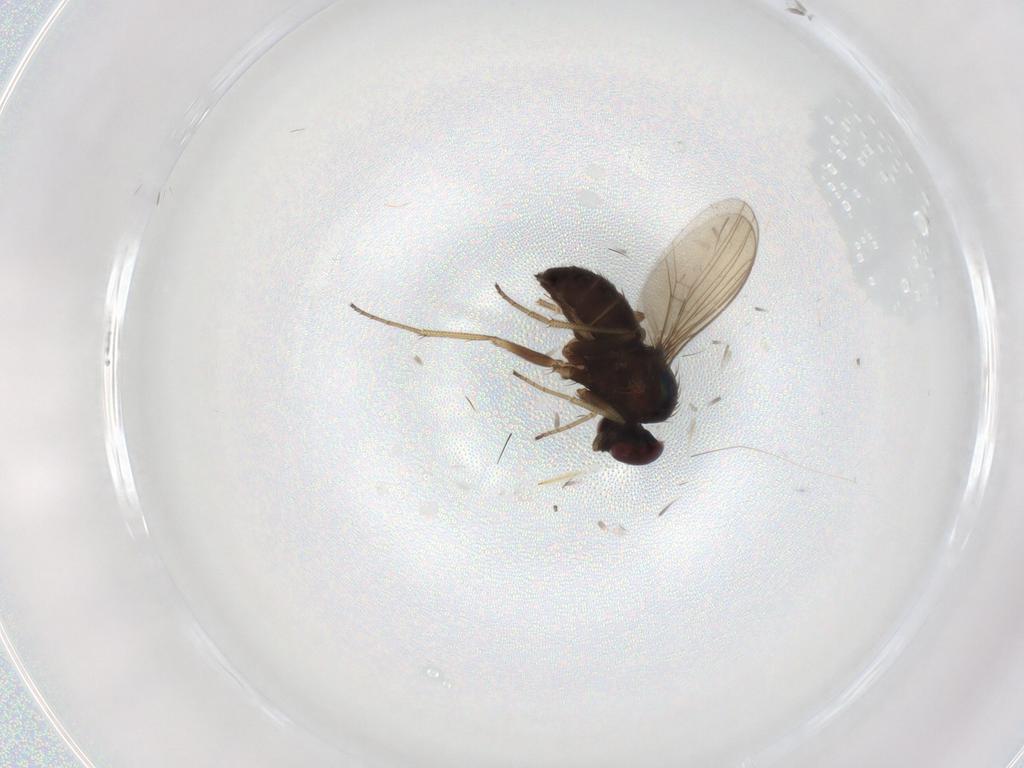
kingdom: Animalia
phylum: Arthropoda
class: Insecta
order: Diptera
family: Dolichopodidae
